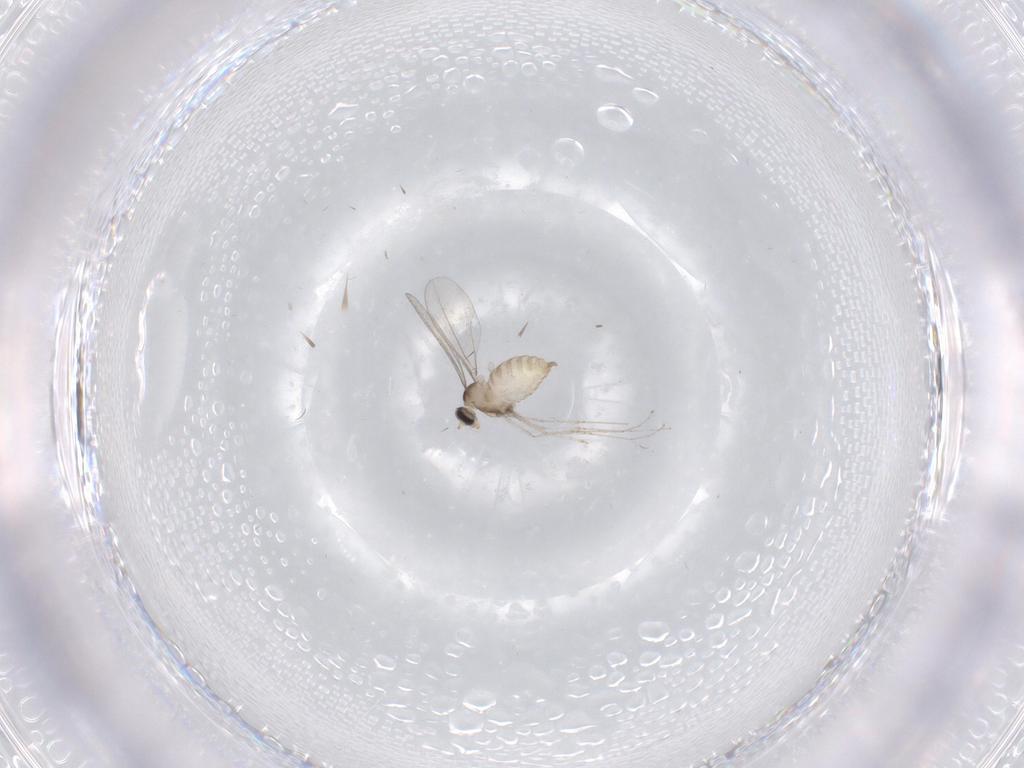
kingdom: Animalia
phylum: Arthropoda
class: Insecta
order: Diptera
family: Cecidomyiidae
